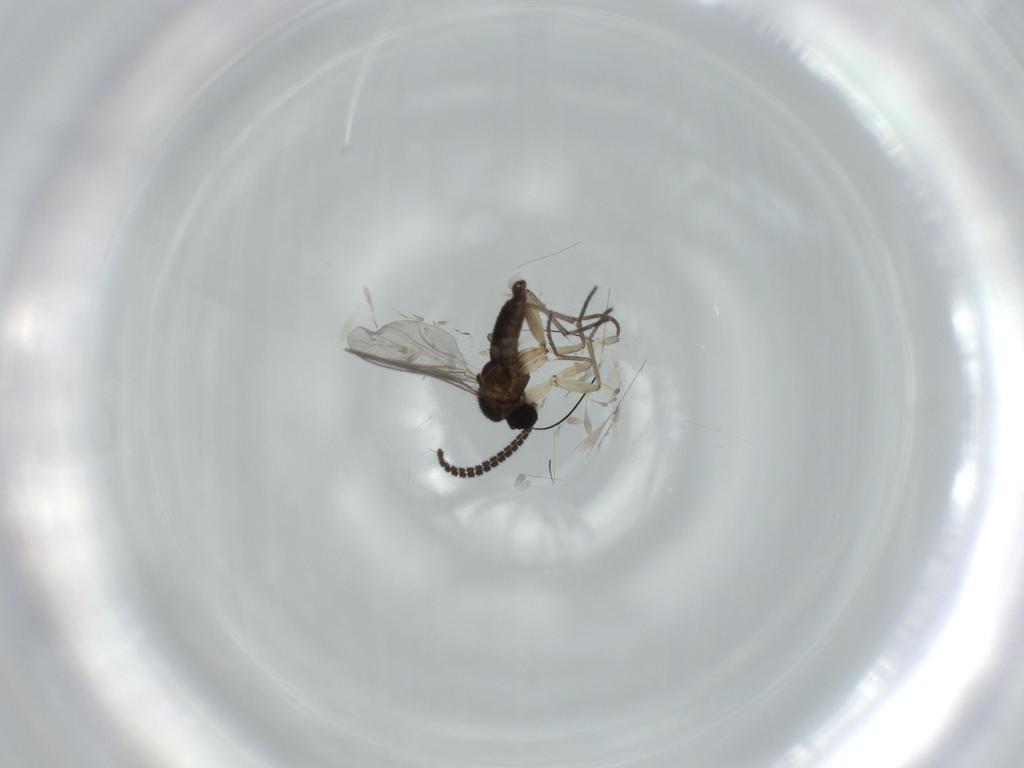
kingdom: Animalia
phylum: Arthropoda
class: Insecta
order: Diptera
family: Sciaridae
